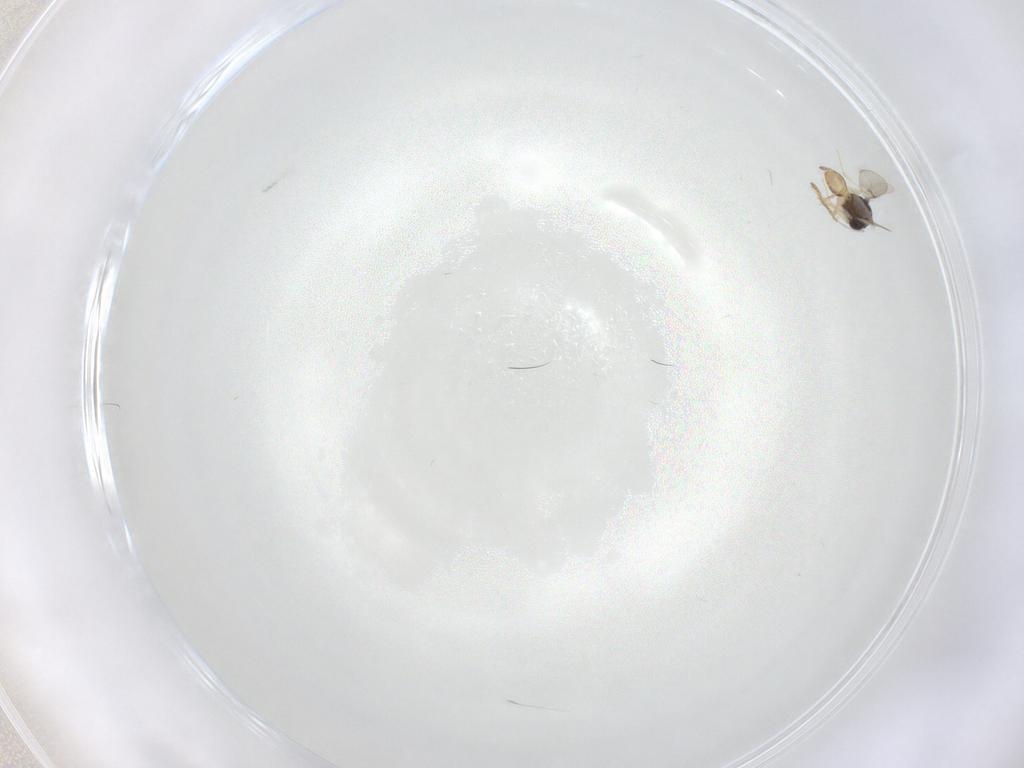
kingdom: Animalia
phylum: Arthropoda
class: Insecta
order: Hymenoptera
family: Scelionidae
